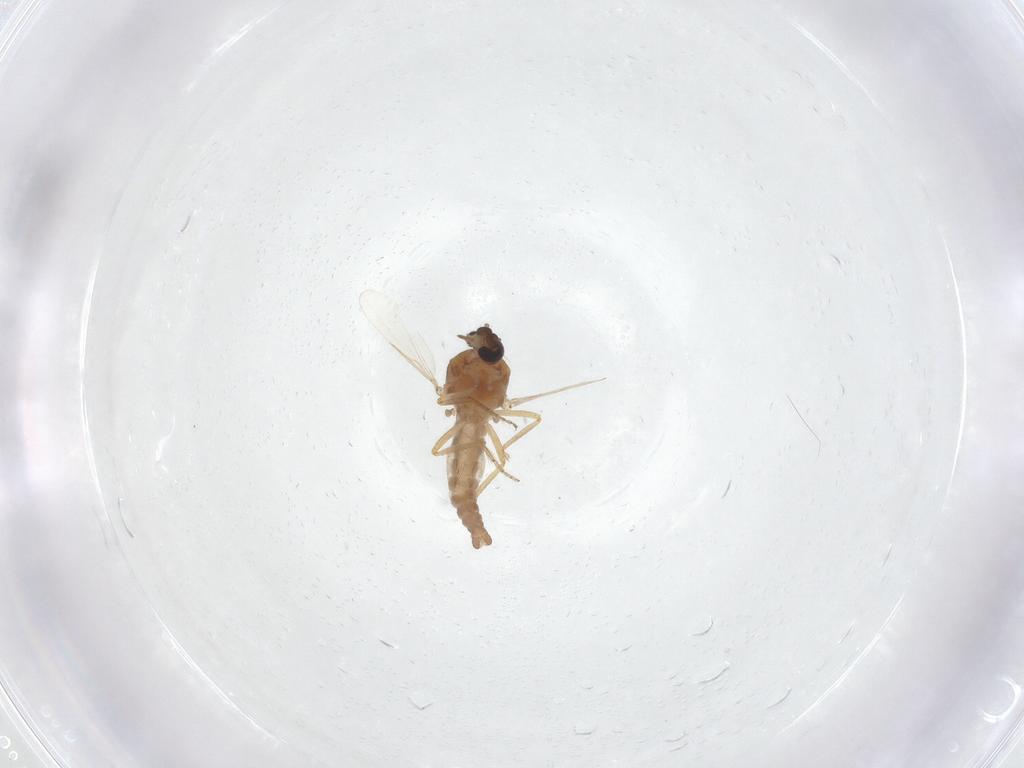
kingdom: Animalia
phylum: Arthropoda
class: Insecta
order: Diptera
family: Ceratopogonidae
